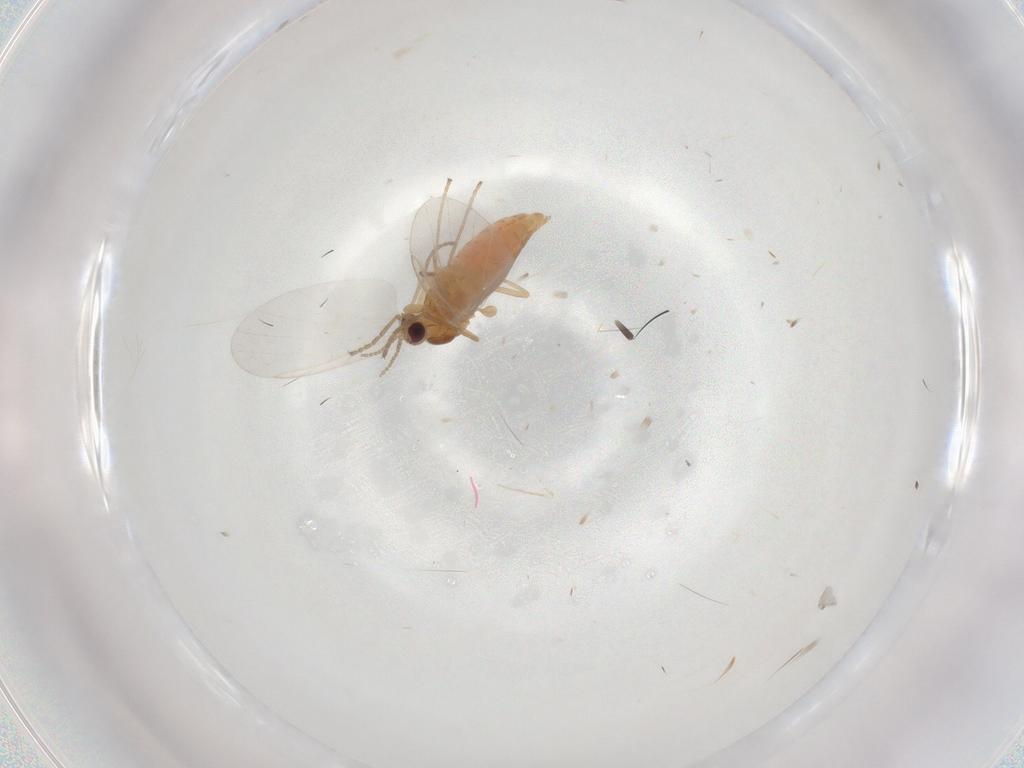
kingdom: Animalia
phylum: Arthropoda
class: Insecta
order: Diptera
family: Cecidomyiidae
